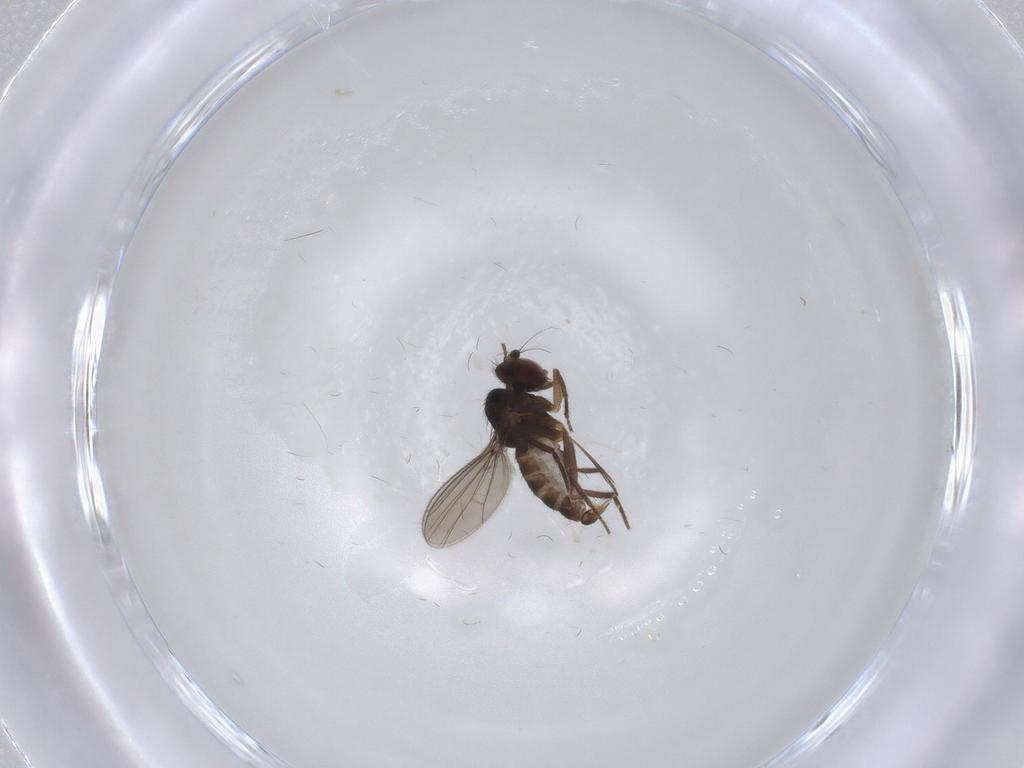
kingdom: Animalia
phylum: Arthropoda
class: Insecta
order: Diptera
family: Dolichopodidae
